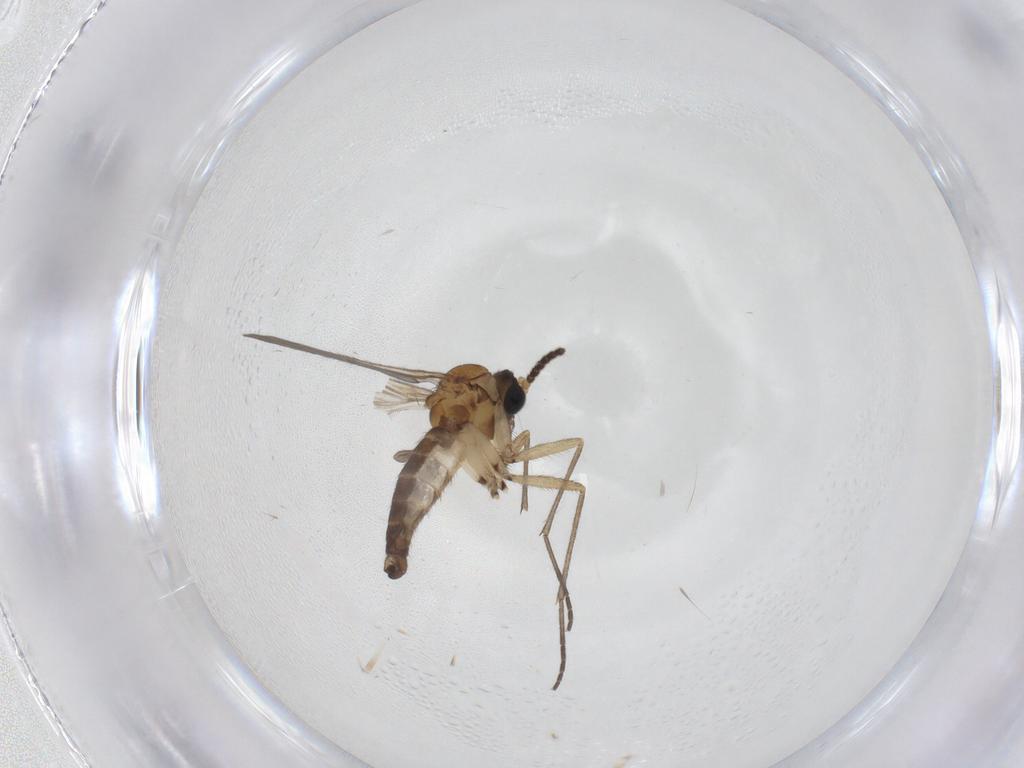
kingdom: Animalia
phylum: Arthropoda
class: Insecta
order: Diptera
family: Sciaridae
